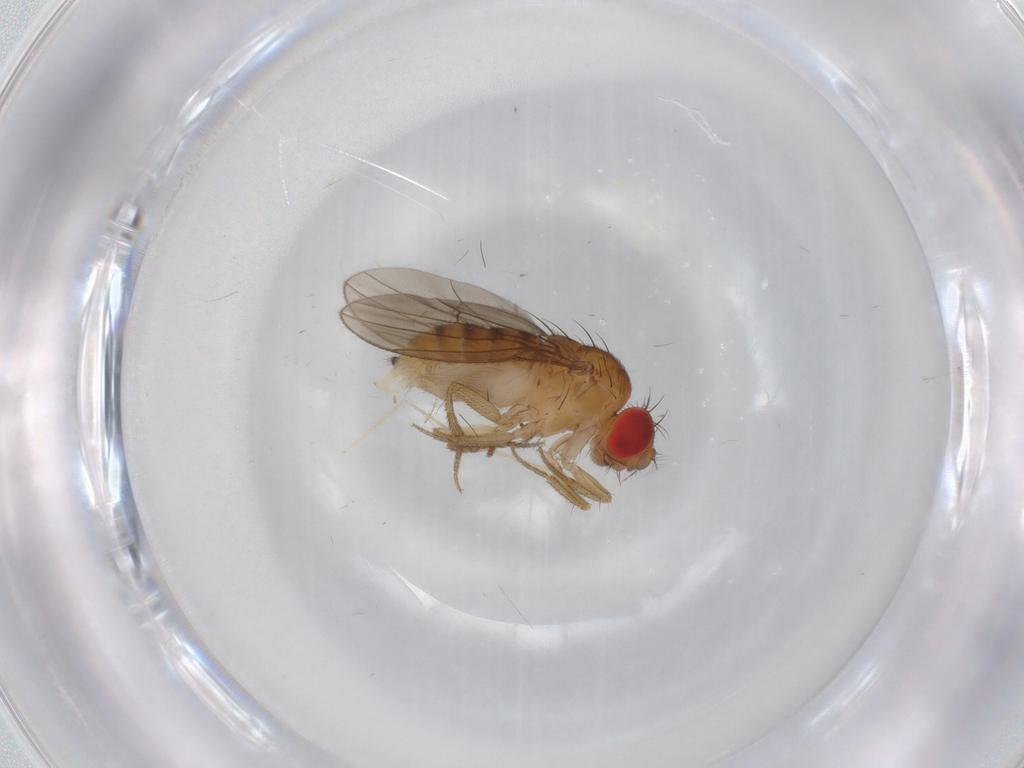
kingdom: Animalia
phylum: Arthropoda
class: Insecta
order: Diptera
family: Drosophilidae
